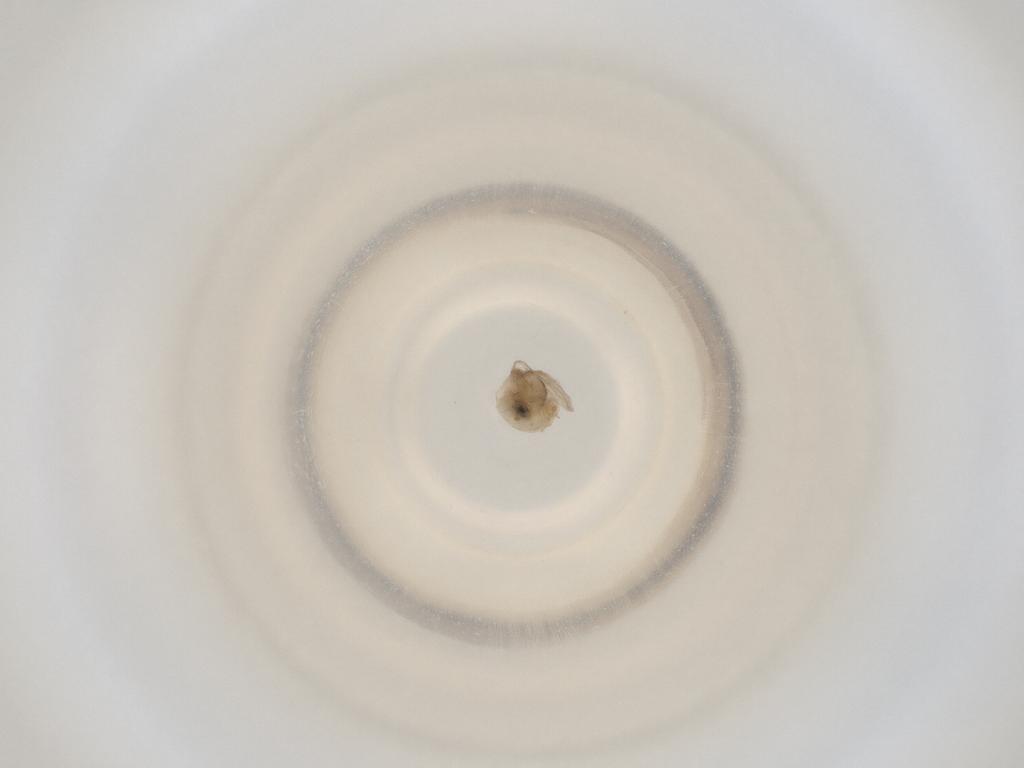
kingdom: Animalia
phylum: Arthropoda
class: Insecta
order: Diptera
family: Cecidomyiidae
